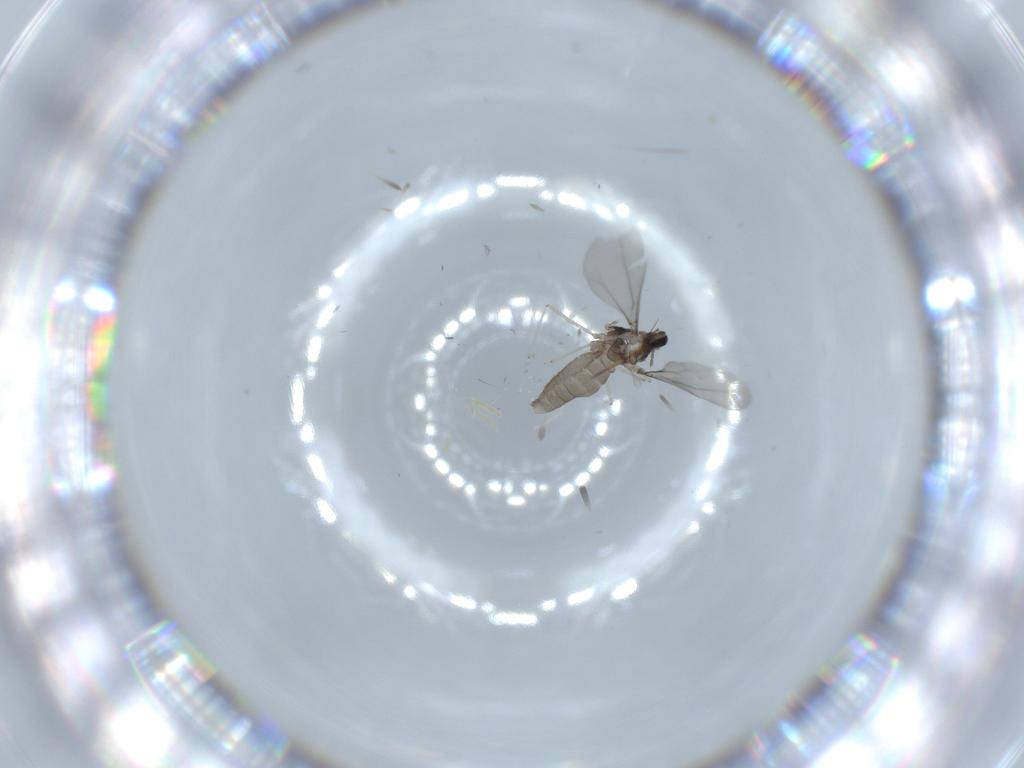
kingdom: Animalia
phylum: Arthropoda
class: Insecta
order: Diptera
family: Cecidomyiidae
